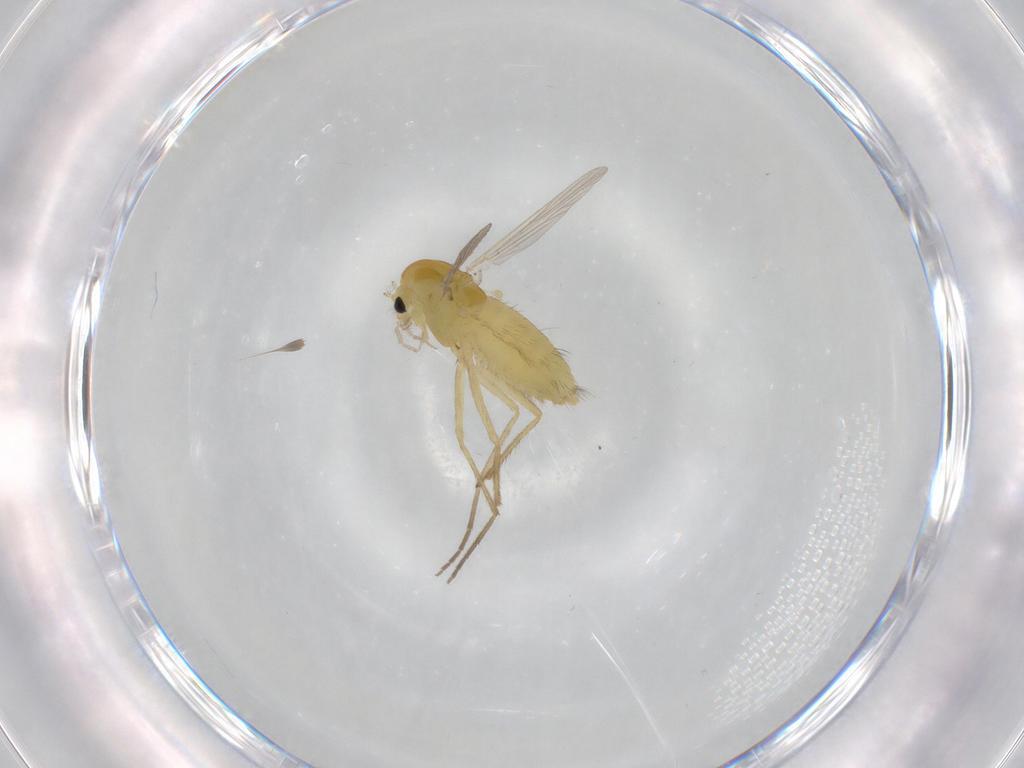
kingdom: Animalia
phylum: Arthropoda
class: Insecta
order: Diptera
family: Chironomidae
